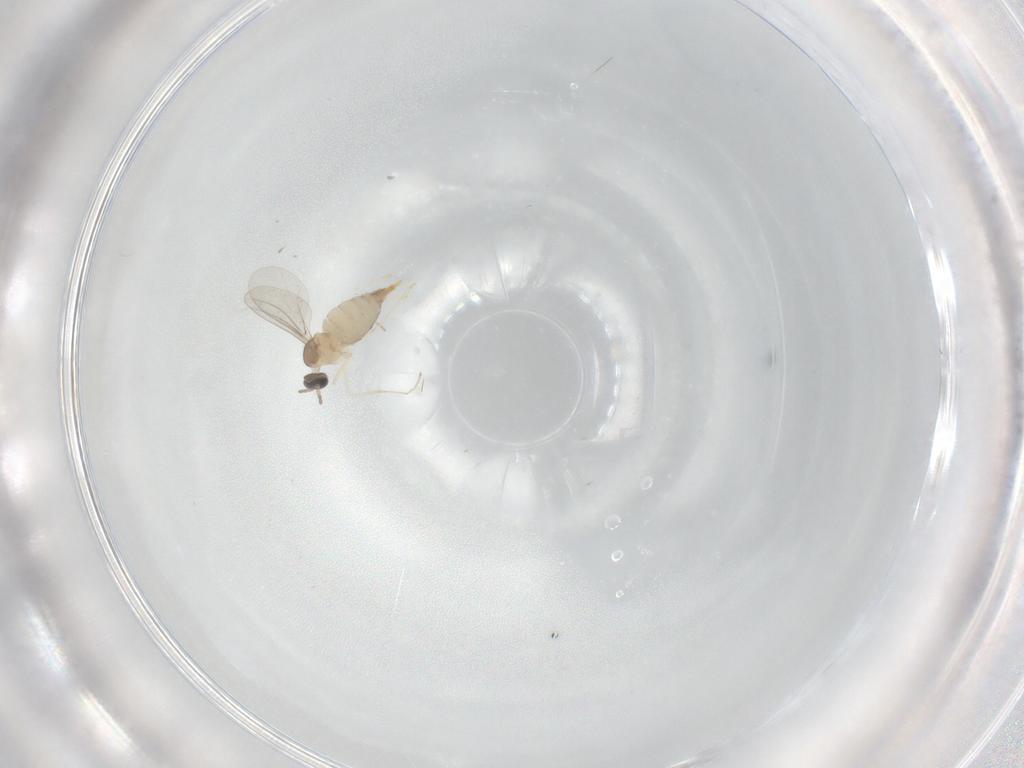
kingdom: Animalia
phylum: Arthropoda
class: Insecta
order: Diptera
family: Cecidomyiidae
